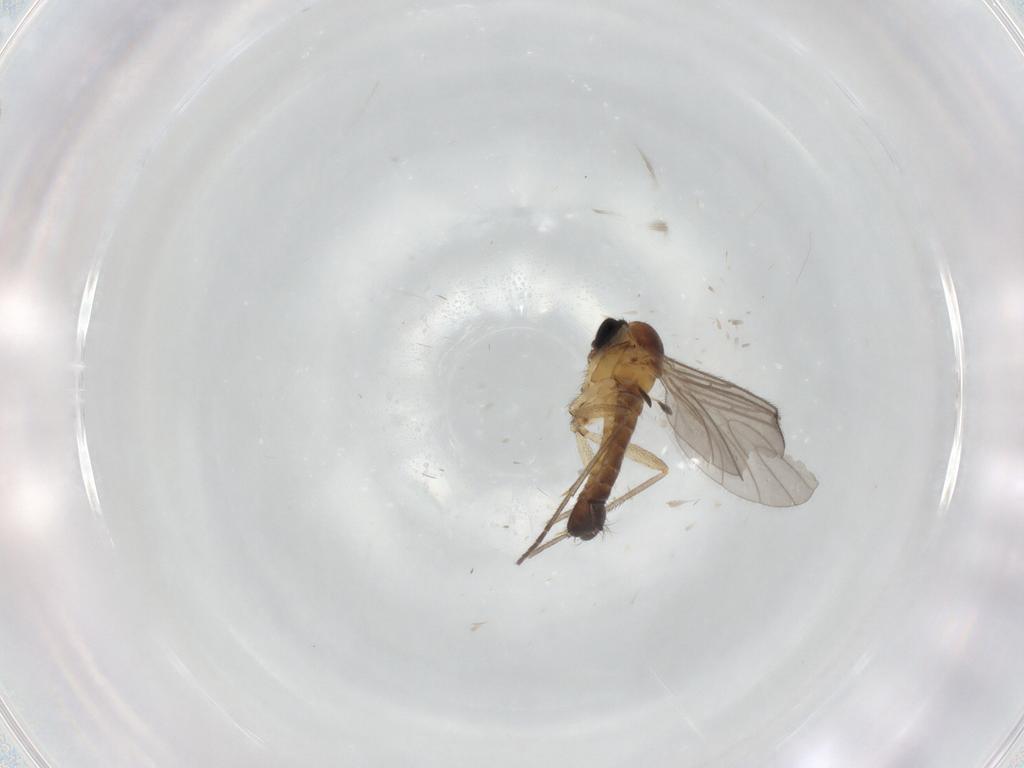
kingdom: Animalia
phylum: Arthropoda
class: Insecta
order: Diptera
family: Sciaridae
